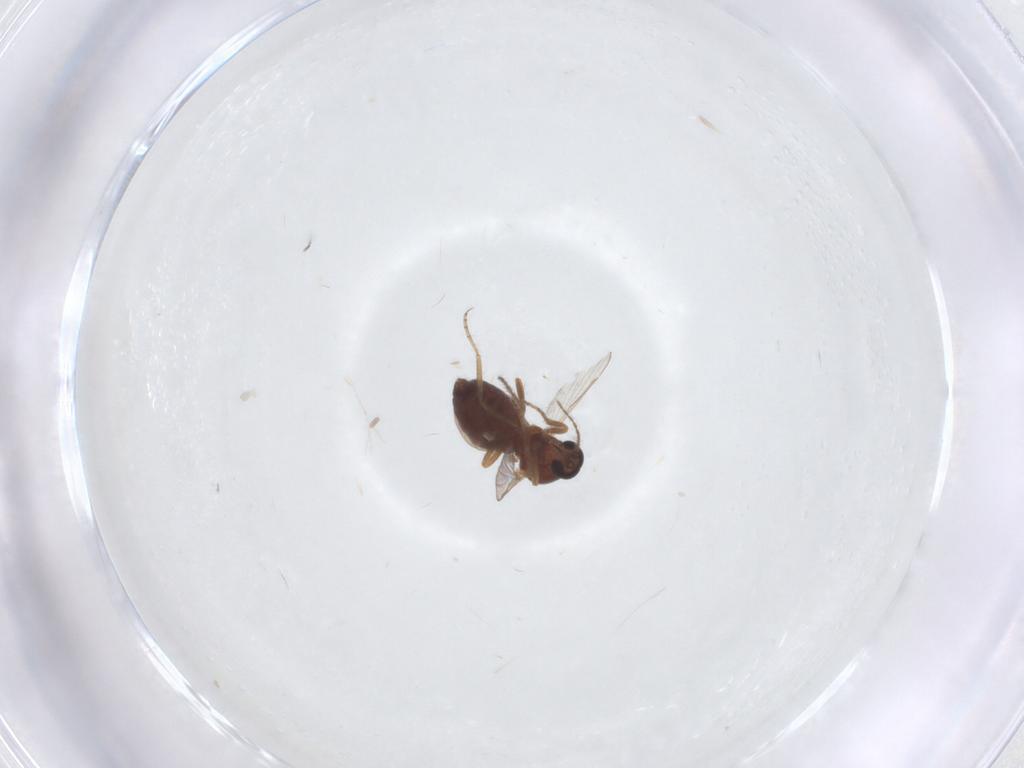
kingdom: Animalia
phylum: Arthropoda
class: Insecta
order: Diptera
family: Ceratopogonidae
